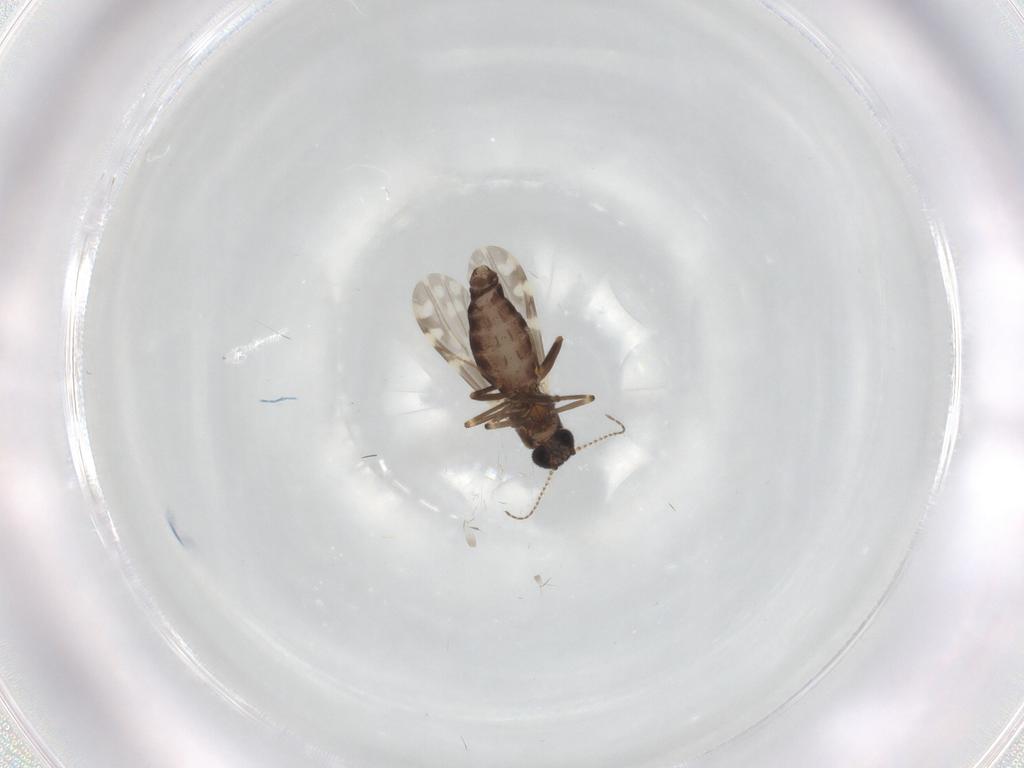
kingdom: Animalia
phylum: Arthropoda
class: Insecta
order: Diptera
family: Ceratopogonidae
